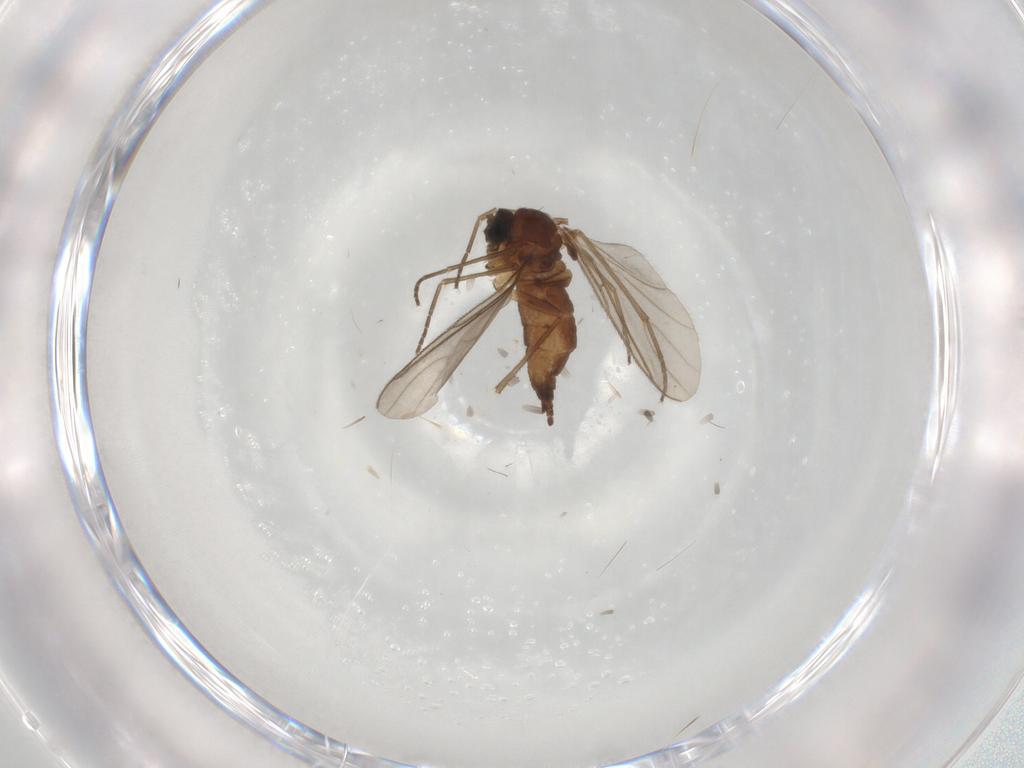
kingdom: Animalia
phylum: Arthropoda
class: Insecta
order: Diptera
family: Sciaridae
